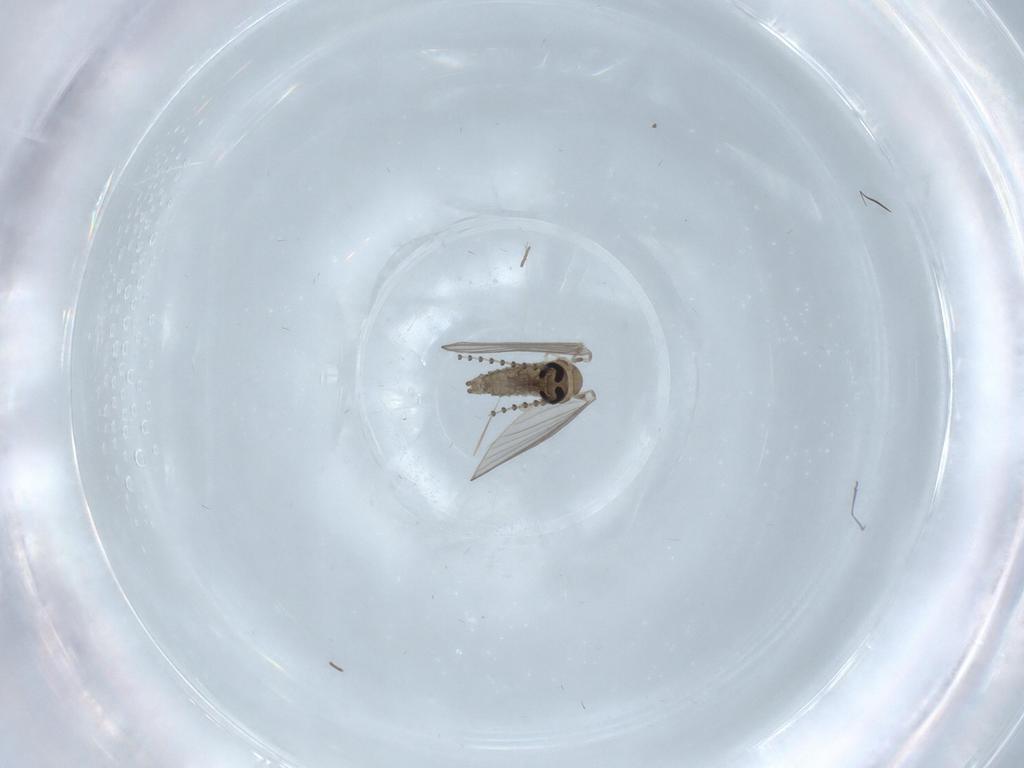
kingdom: Animalia
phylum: Arthropoda
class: Insecta
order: Diptera
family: Psychodidae
